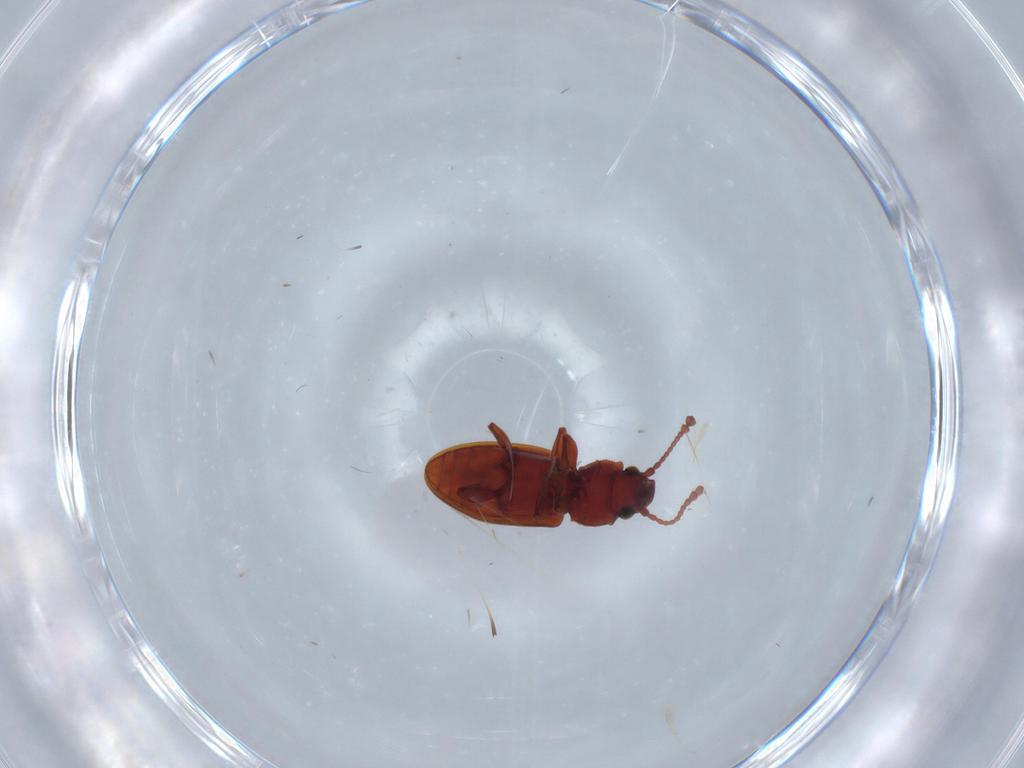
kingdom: Animalia
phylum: Arthropoda
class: Insecta
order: Coleoptera
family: Silvanidae
